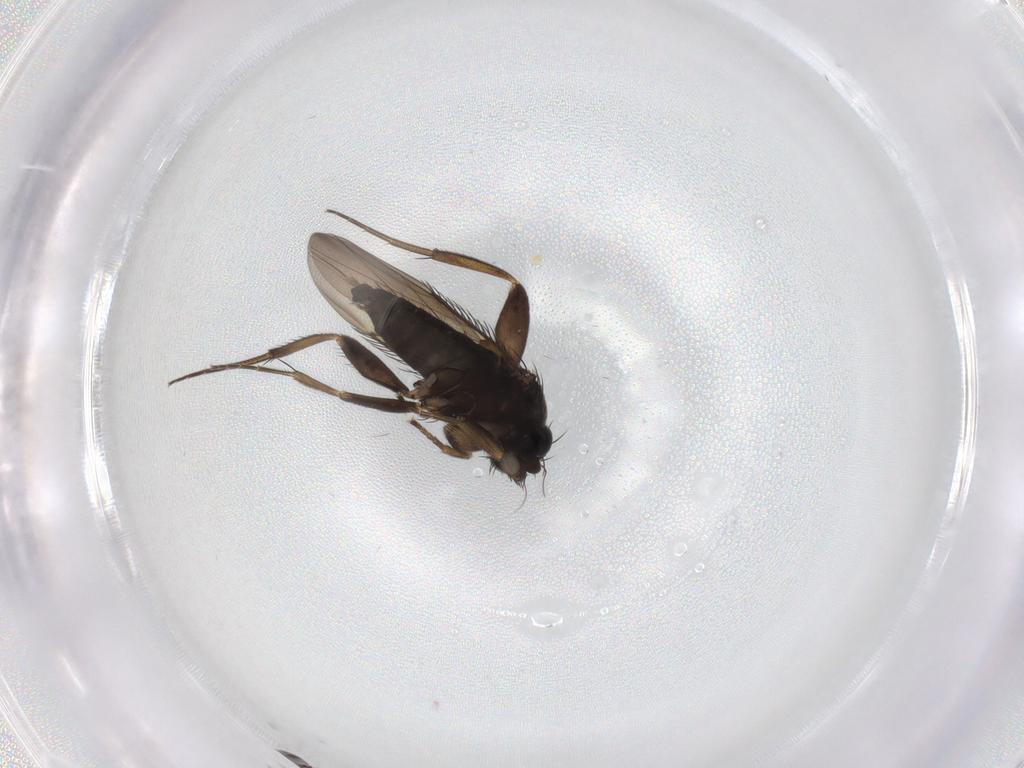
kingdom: Animalia
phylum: Arthropoda
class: Insecta
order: Diptera
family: Phoridae
